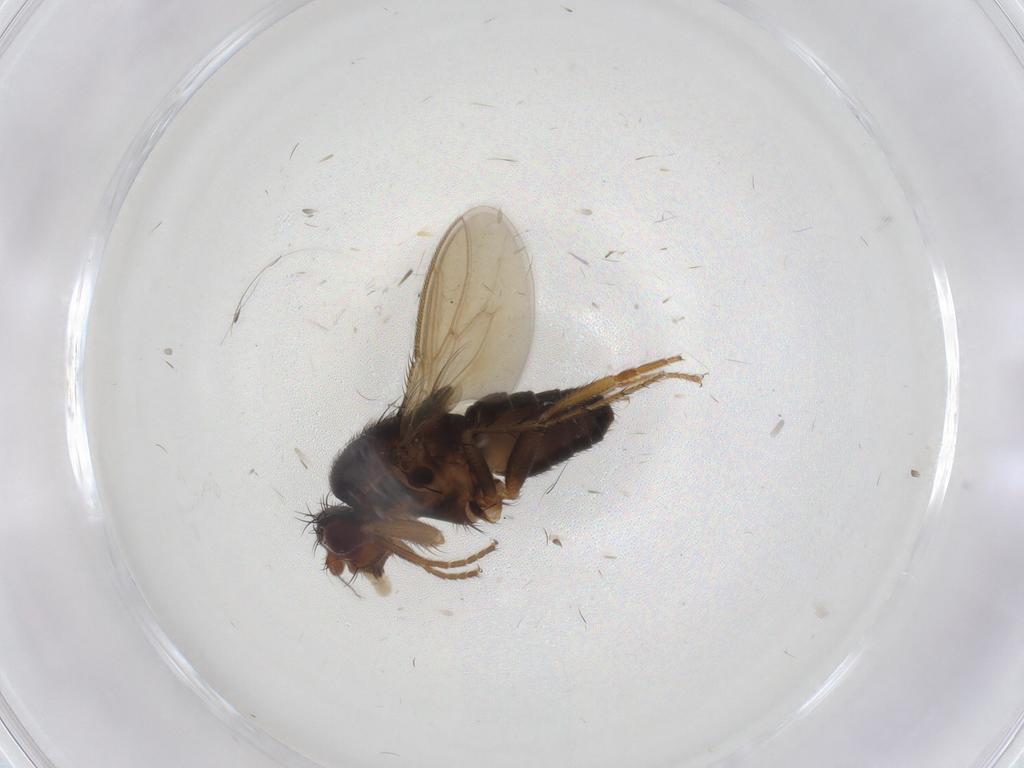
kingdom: Animalia
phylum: Arthropoda
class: Insecta
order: Diptera
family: Sphaeroceridae
